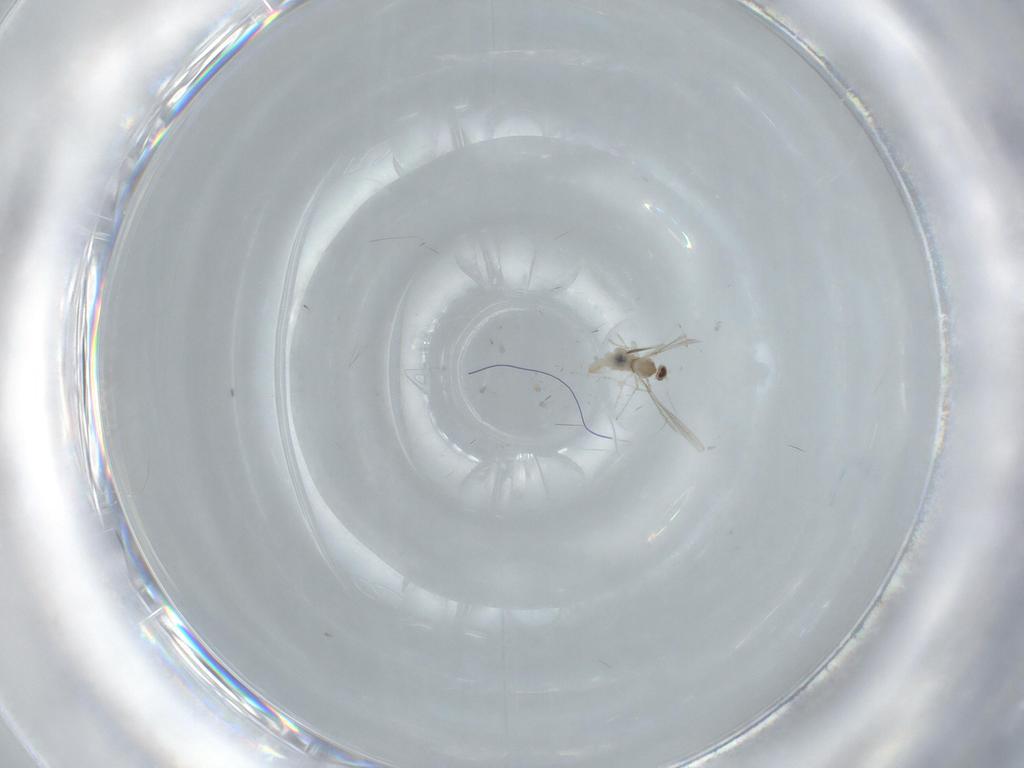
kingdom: Animalia
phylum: Arthropoda
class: Insecta
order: Diptera
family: Cecidomyiidae
